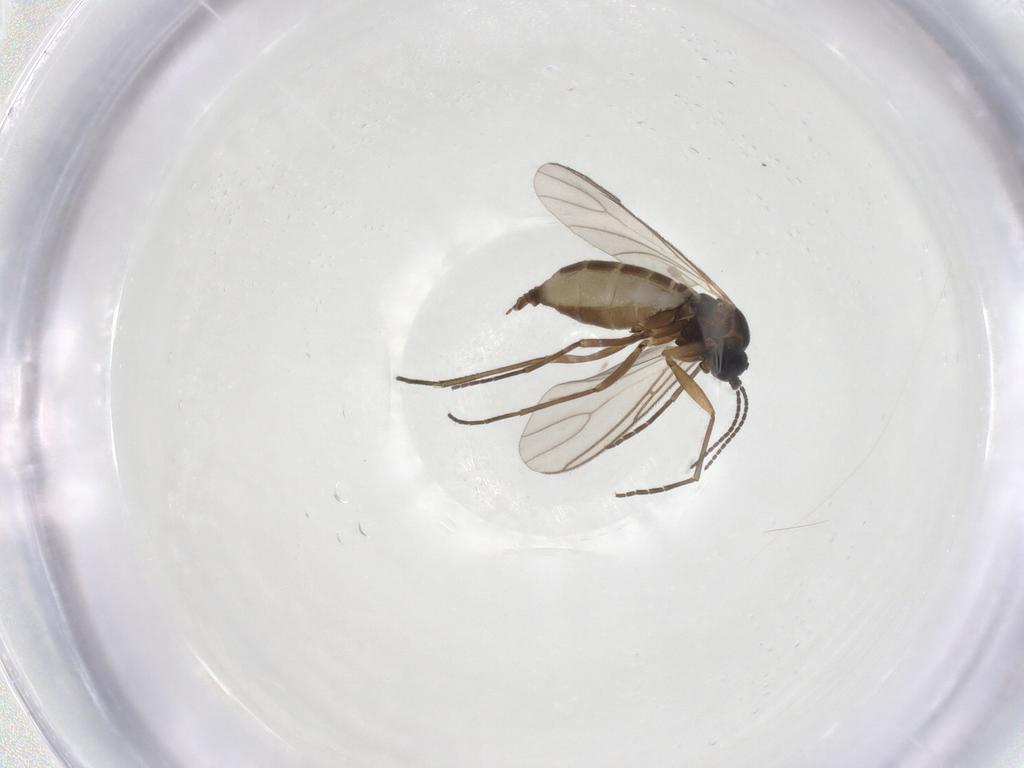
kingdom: Animalia
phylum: Arthropoda
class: Insecta
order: Diptera
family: Sciaridae
